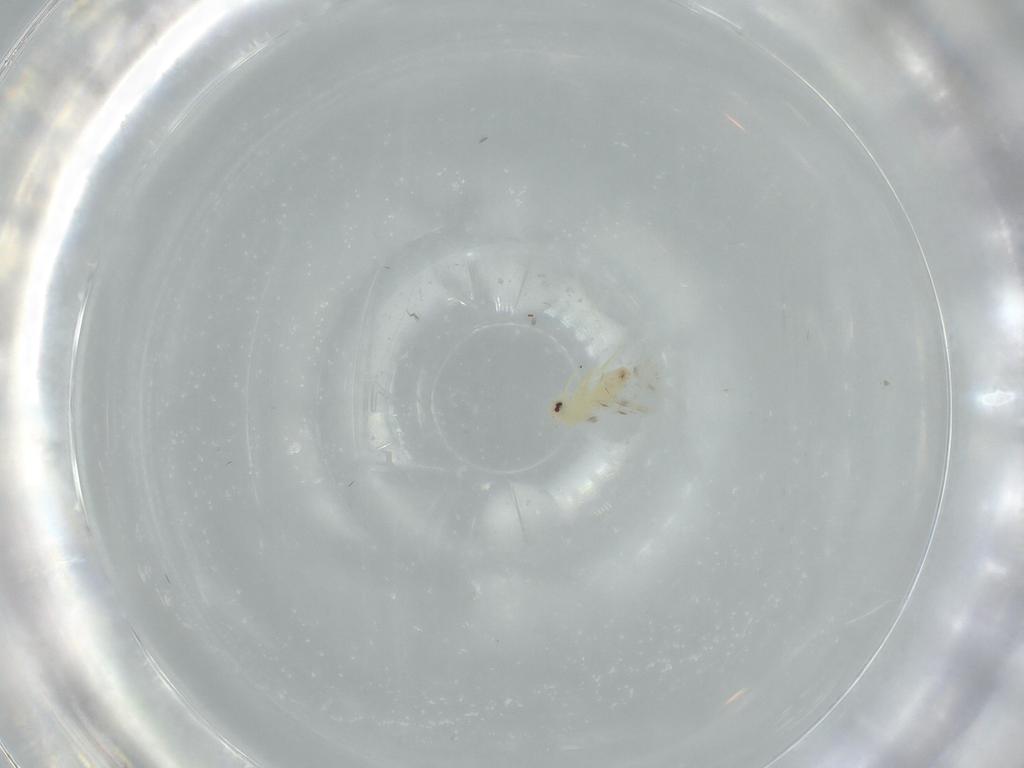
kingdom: Animalia
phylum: Arthropoda
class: Insecta
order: Hemiptera
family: Aleyrodidae
